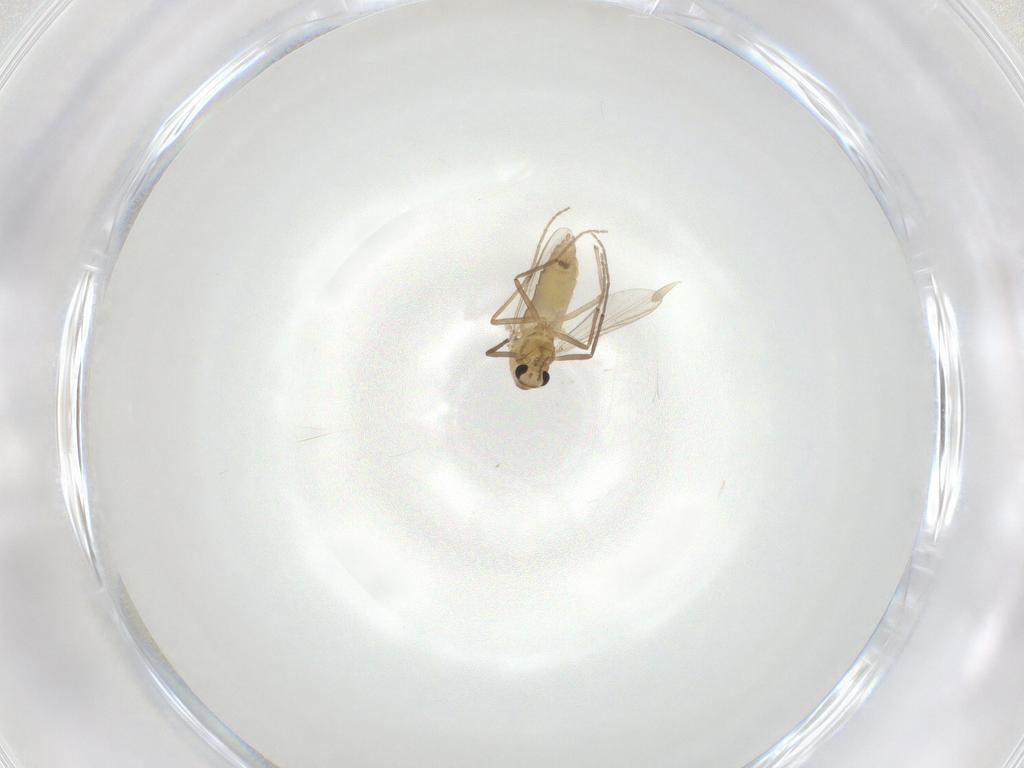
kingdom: Animalia
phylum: Arthropoda
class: Insecta
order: Diptera
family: Chironomidae
